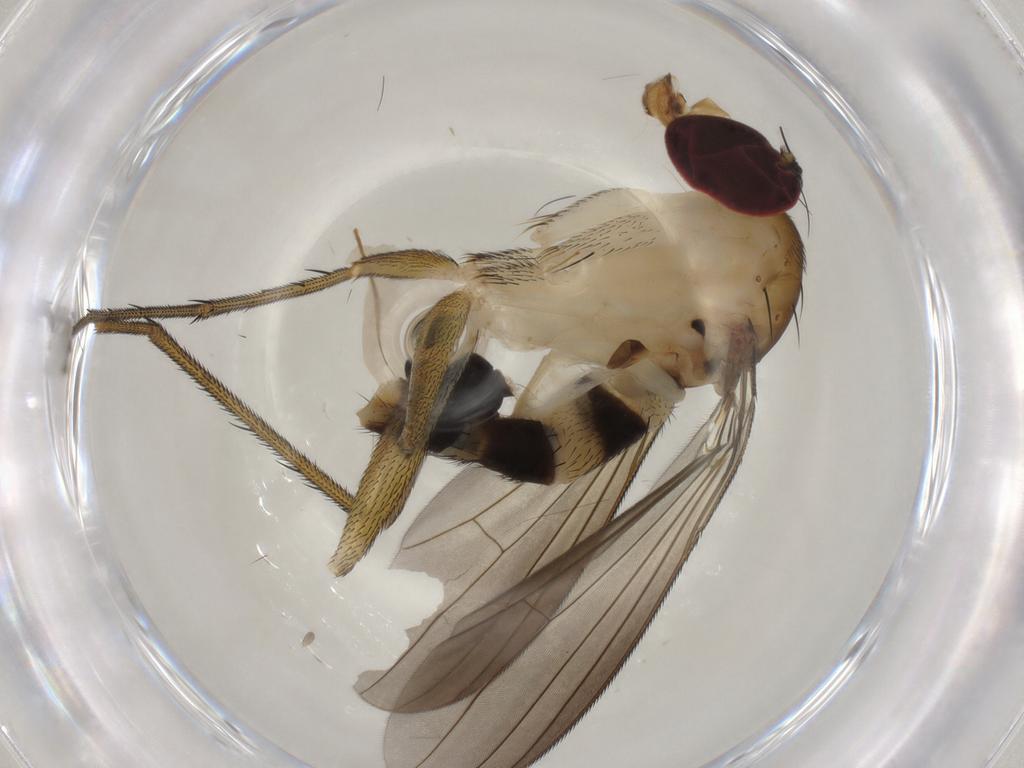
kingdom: Animalia
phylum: Arthropoda
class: Insecta
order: Diptera
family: Dolichopodidae
